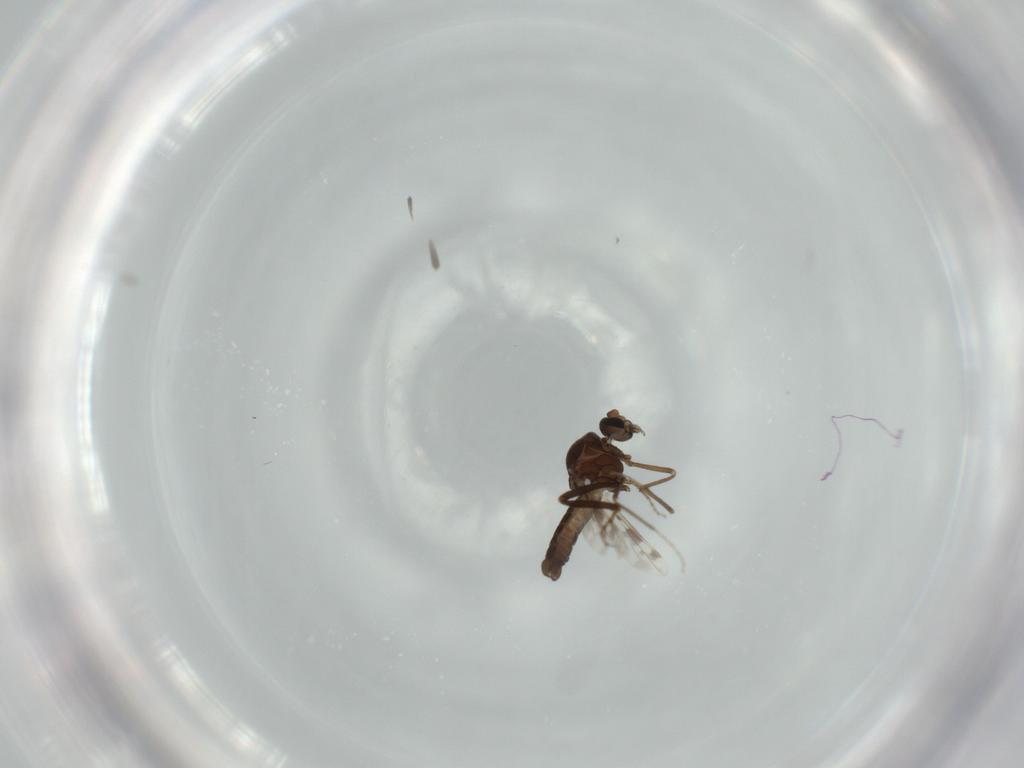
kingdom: Animalia
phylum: Arthropoda
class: Insecta
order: Diptera
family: Ceratopogonidae
